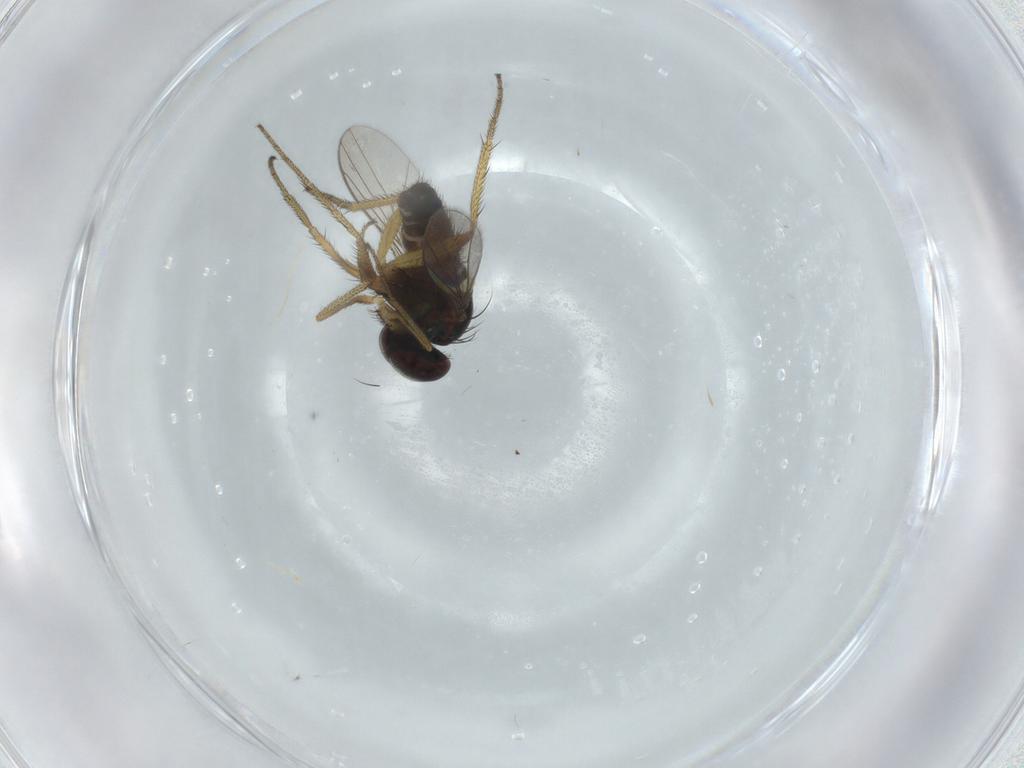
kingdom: Animalia
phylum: Arthropoda
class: Insecta
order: Diptera
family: Dolichopodidae
